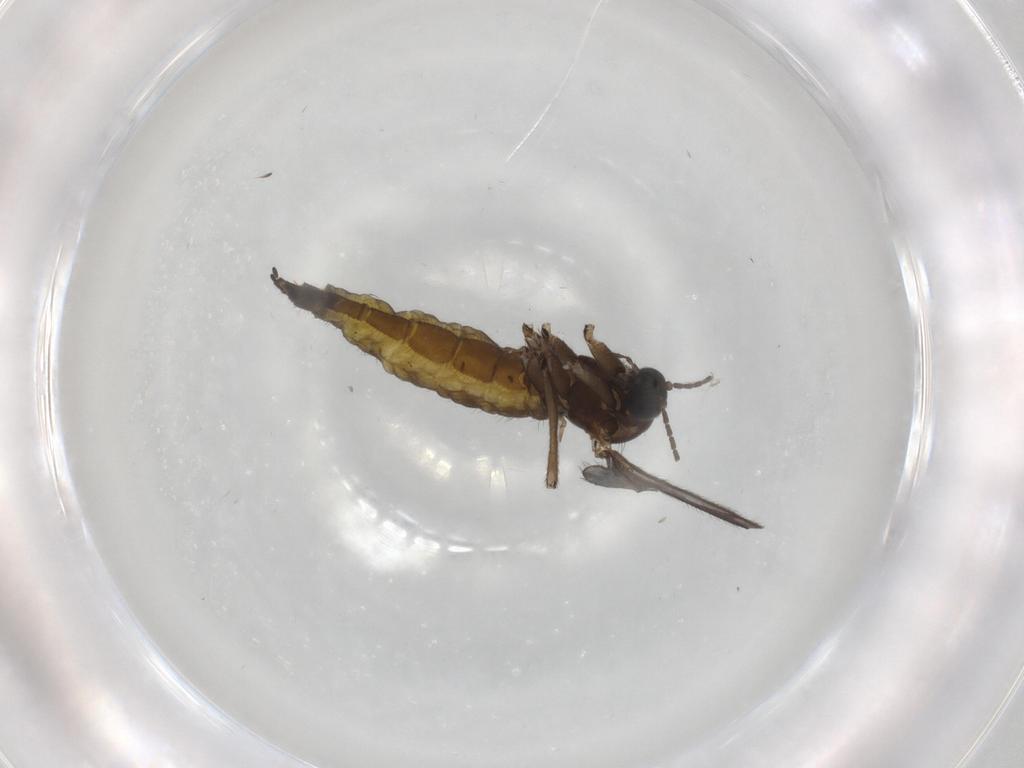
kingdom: Animalia
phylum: Arthropoda
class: Insecta
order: Diptera
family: Sciaridae
